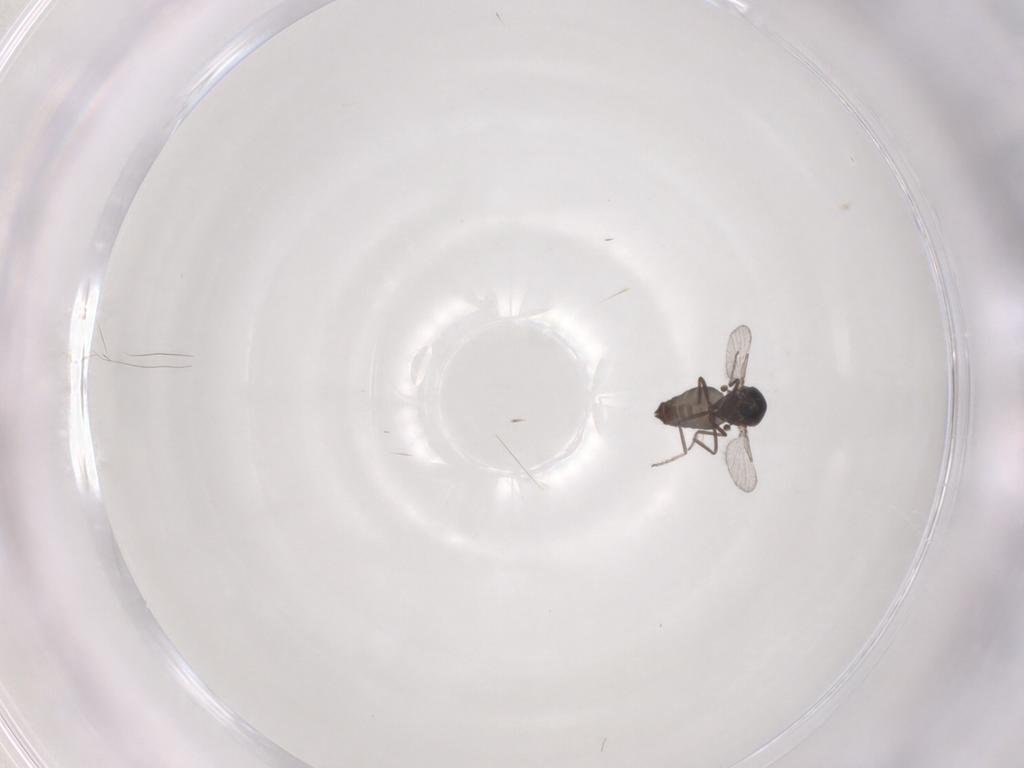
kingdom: Animalia
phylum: Arthropoda
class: Insecta
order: Diptera
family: Ceratopogonidae
